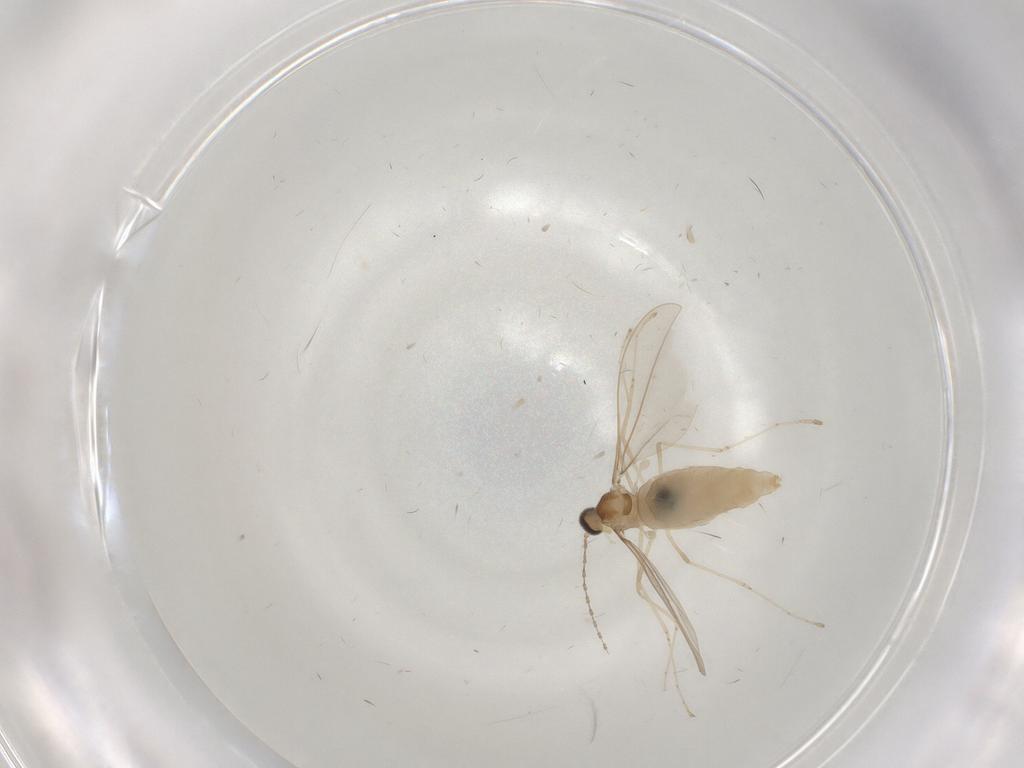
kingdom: Animalia
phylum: Arthropoda
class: Insecta
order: Diptera
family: Cecidomyiidae
